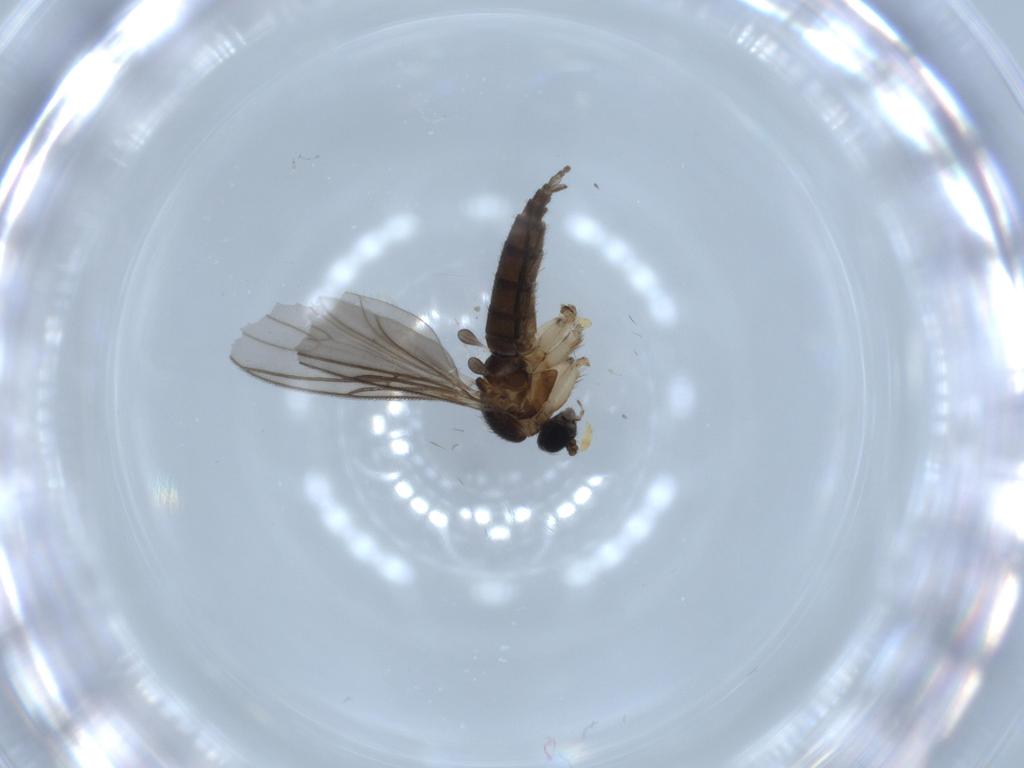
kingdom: Animalia
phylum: Arthropoda
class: Insecta
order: Diptera
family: Sciaridae
